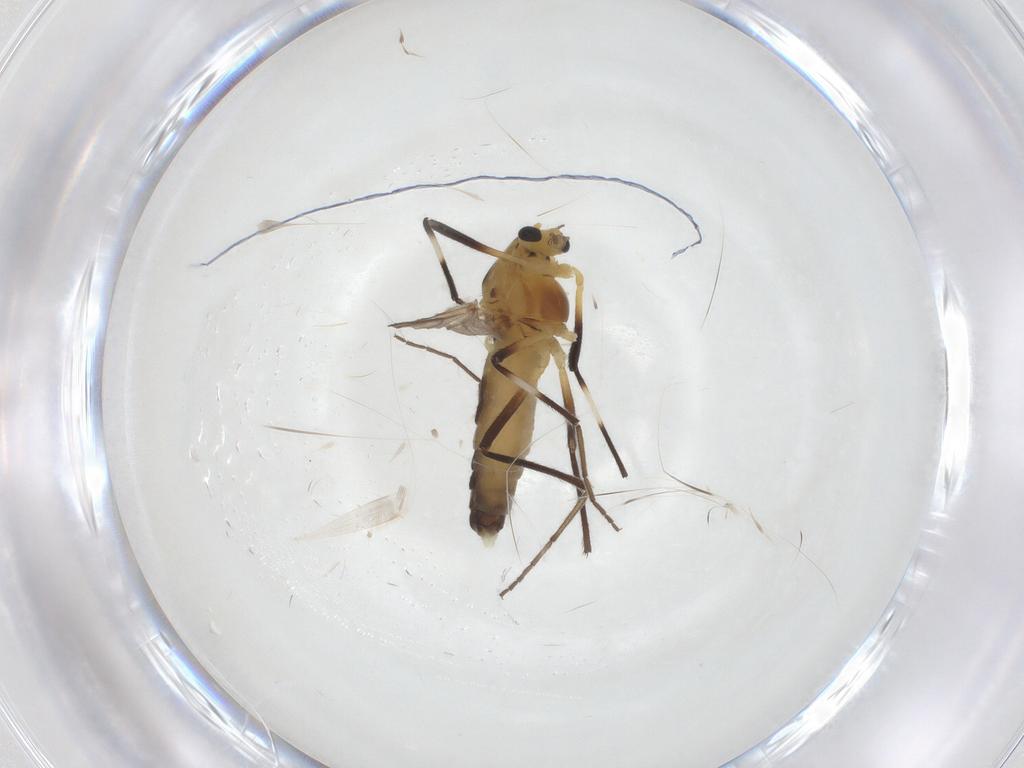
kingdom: Animalia
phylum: Arthropoda
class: Insecta
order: Diptera
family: Chironomidae
